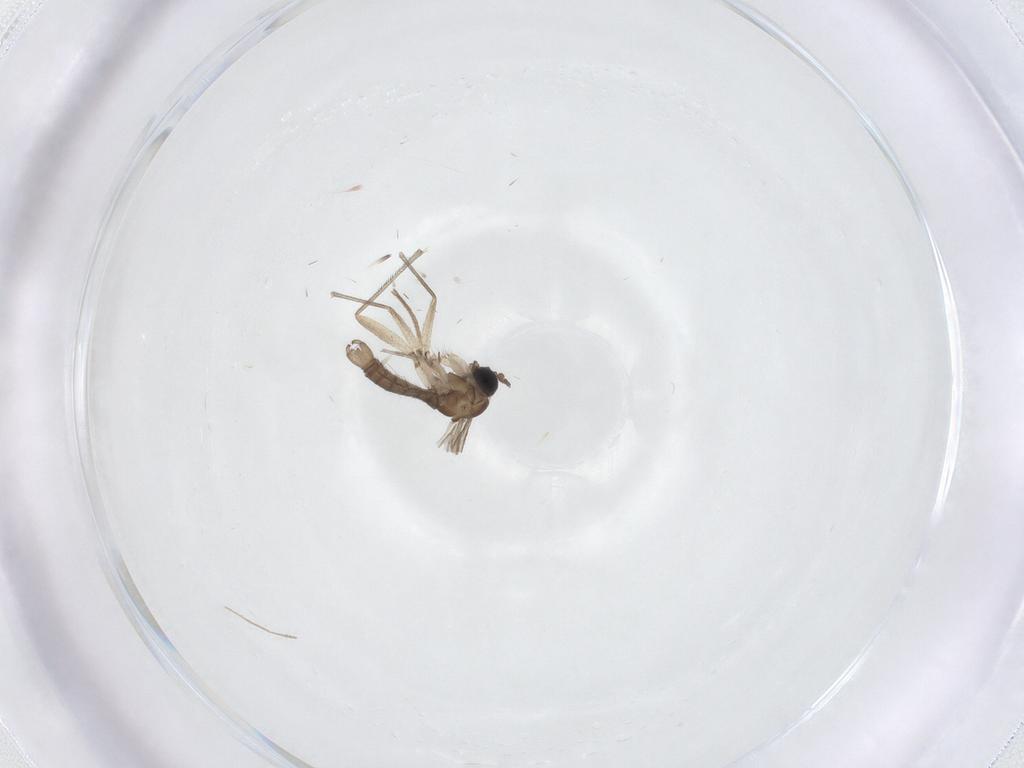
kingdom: Animalia
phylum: Arthropoda
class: Insecta
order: Diptera
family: Sciaridae
